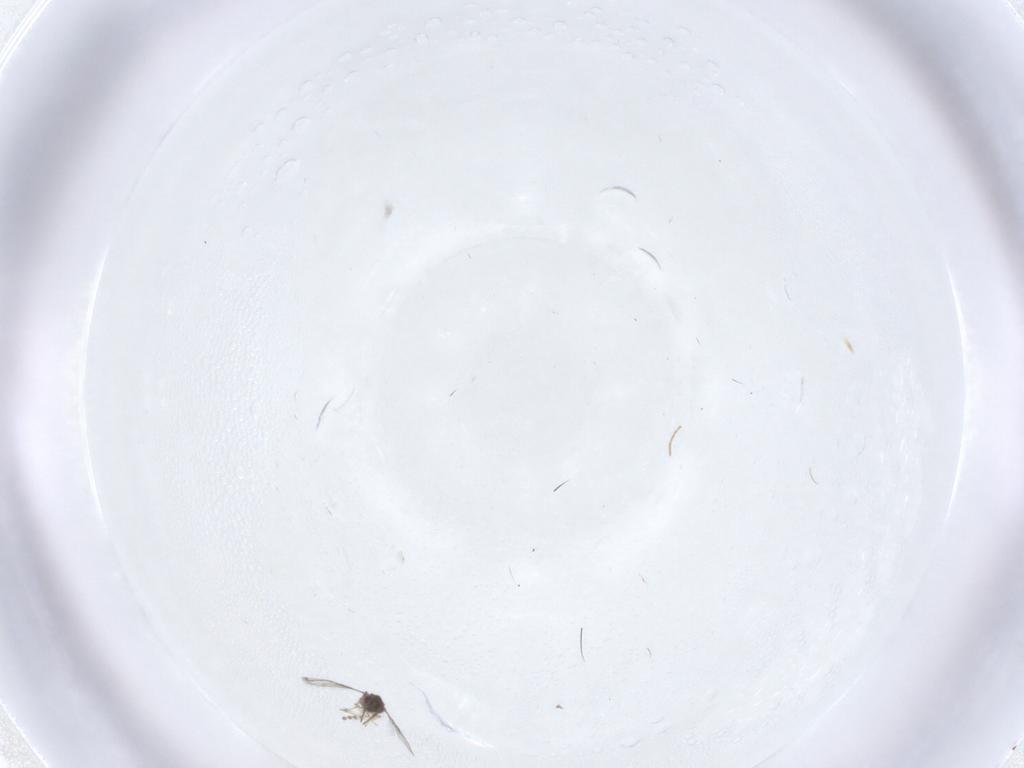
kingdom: Animalia
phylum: Arthropoda
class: Insecta
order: Diptera
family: Chironomidae
